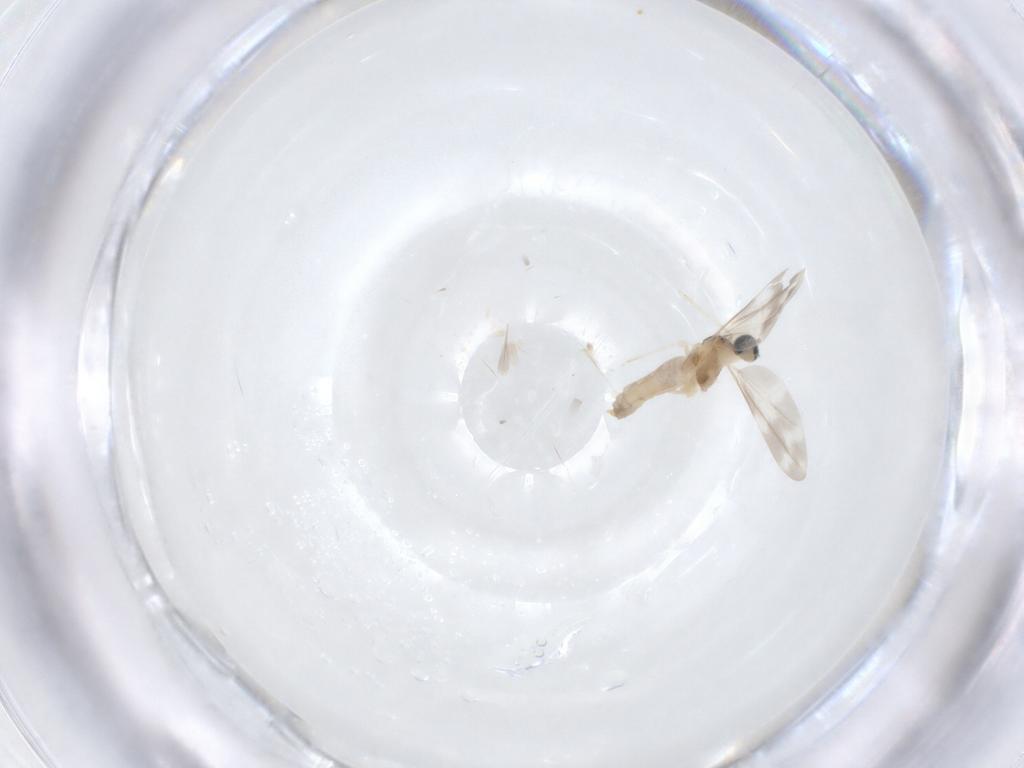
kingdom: Animalia
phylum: Arthropoda
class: Insecta
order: Diptera
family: Cecidomyiidae
